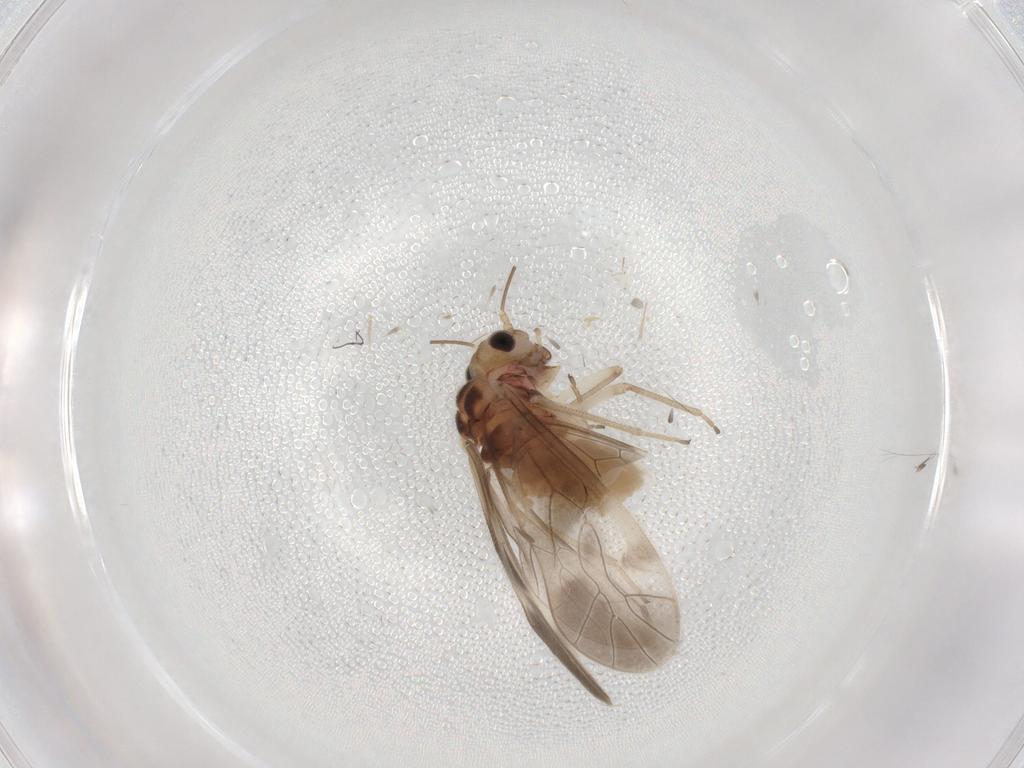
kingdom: Animalia
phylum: Arthropoda
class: Insecta
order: Psocodea
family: Caeciliusidae
